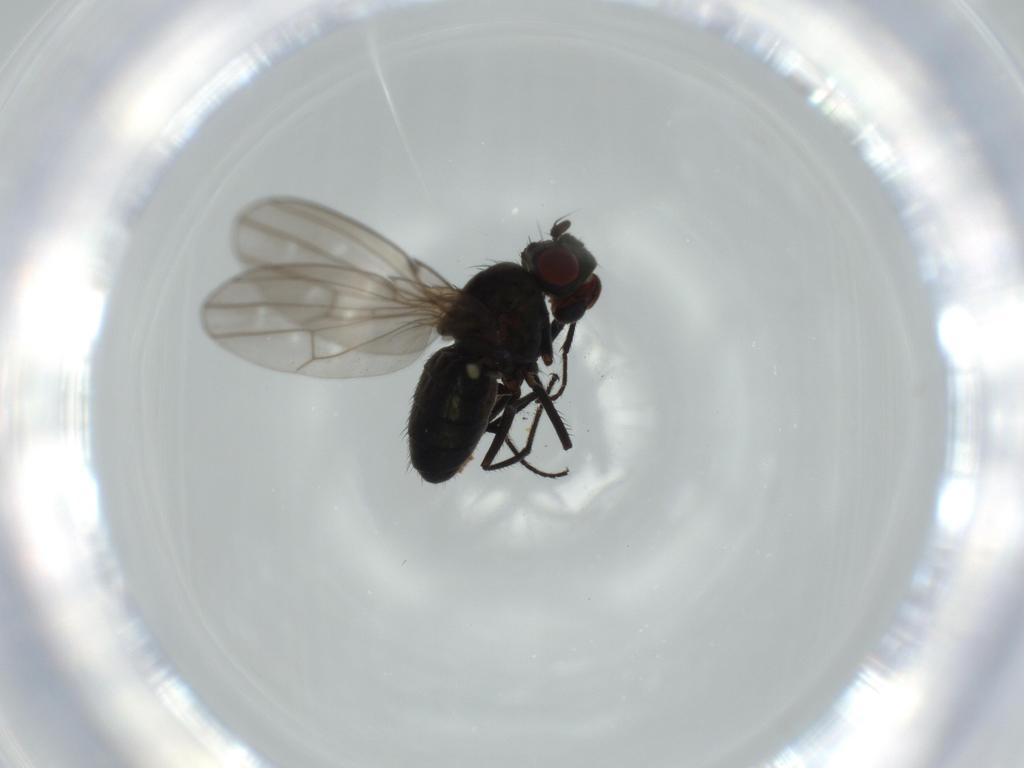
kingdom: Animalia
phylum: Arthropoda
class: Insecta
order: Diptera
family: Ephydridae
